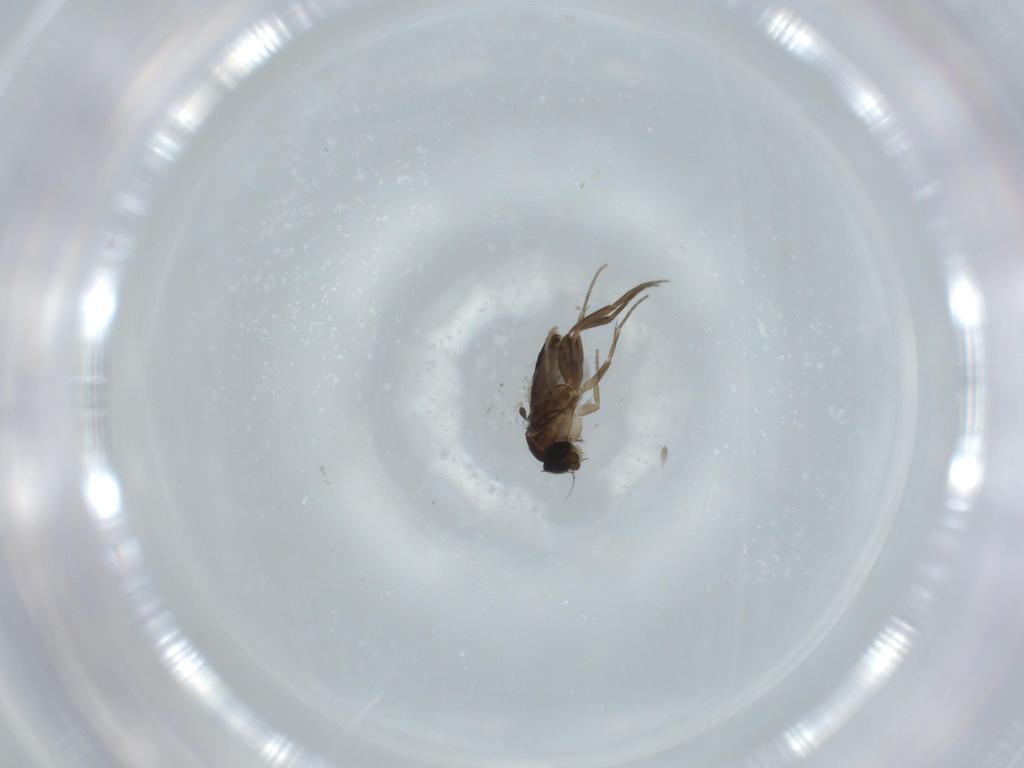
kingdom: Animalia
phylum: Arthropoda
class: Insecta
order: Diptera
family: Phoridae
